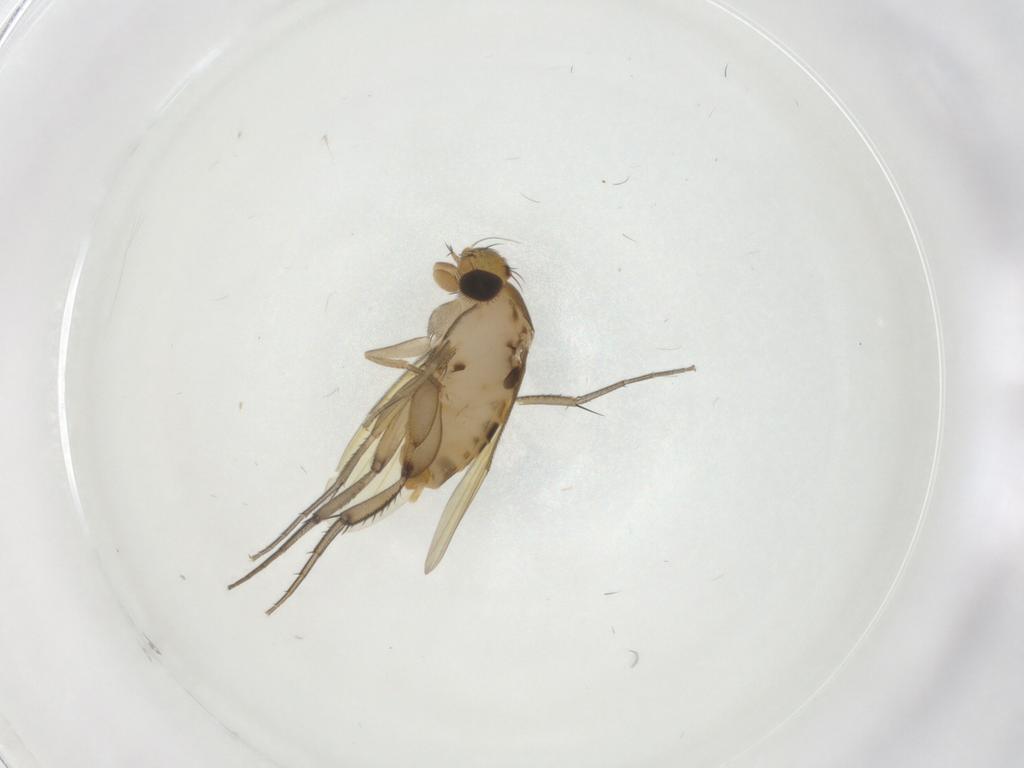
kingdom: Animalia
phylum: Arthropoda
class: Insecta
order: Diptera
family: Phoridae
